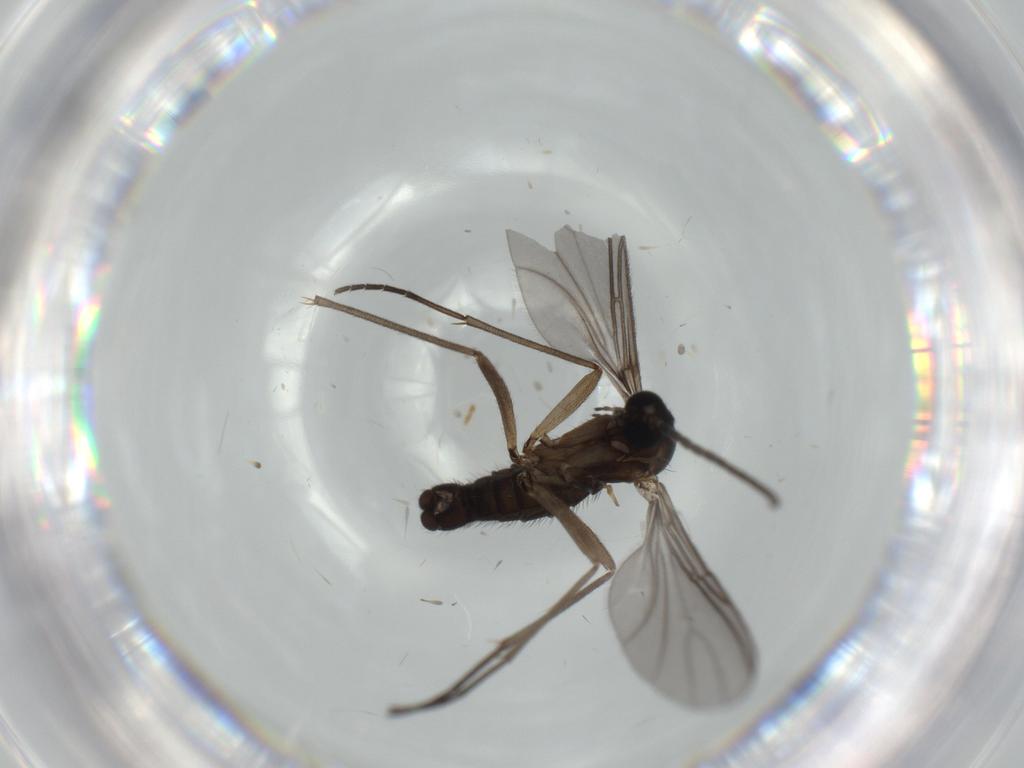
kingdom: Animalia
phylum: Arthropoda
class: Insecta
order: Diptera
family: Sciaridae
